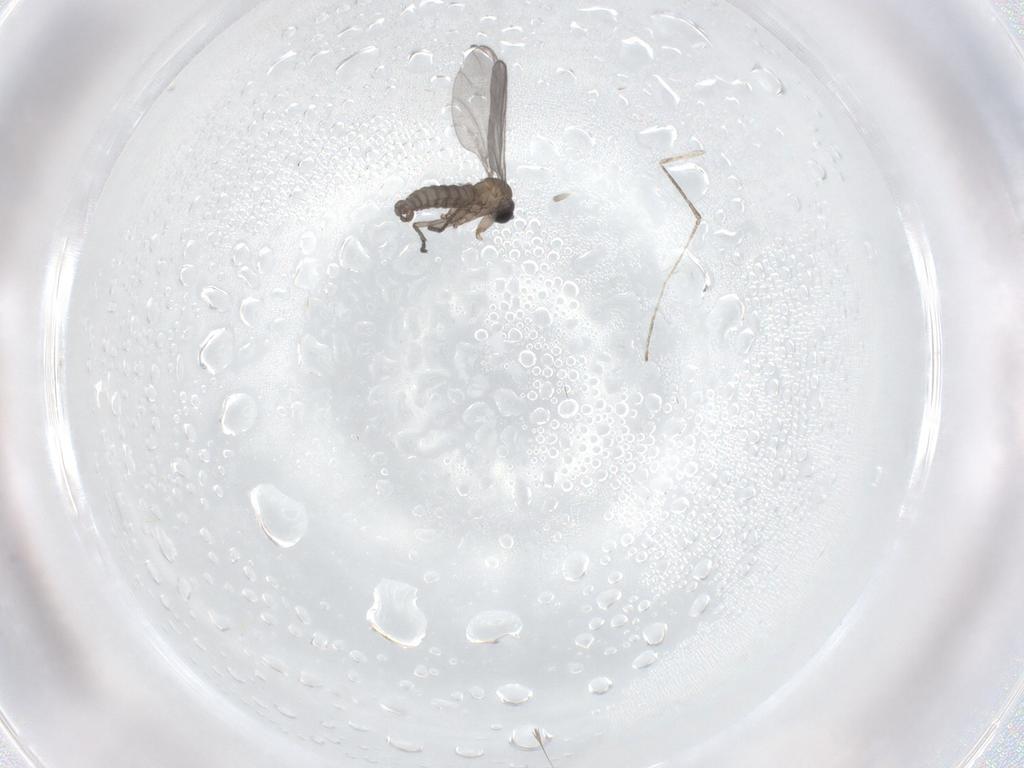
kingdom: Animalia
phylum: Arthropoda
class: Insecta
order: Diptera
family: Sciaridae
